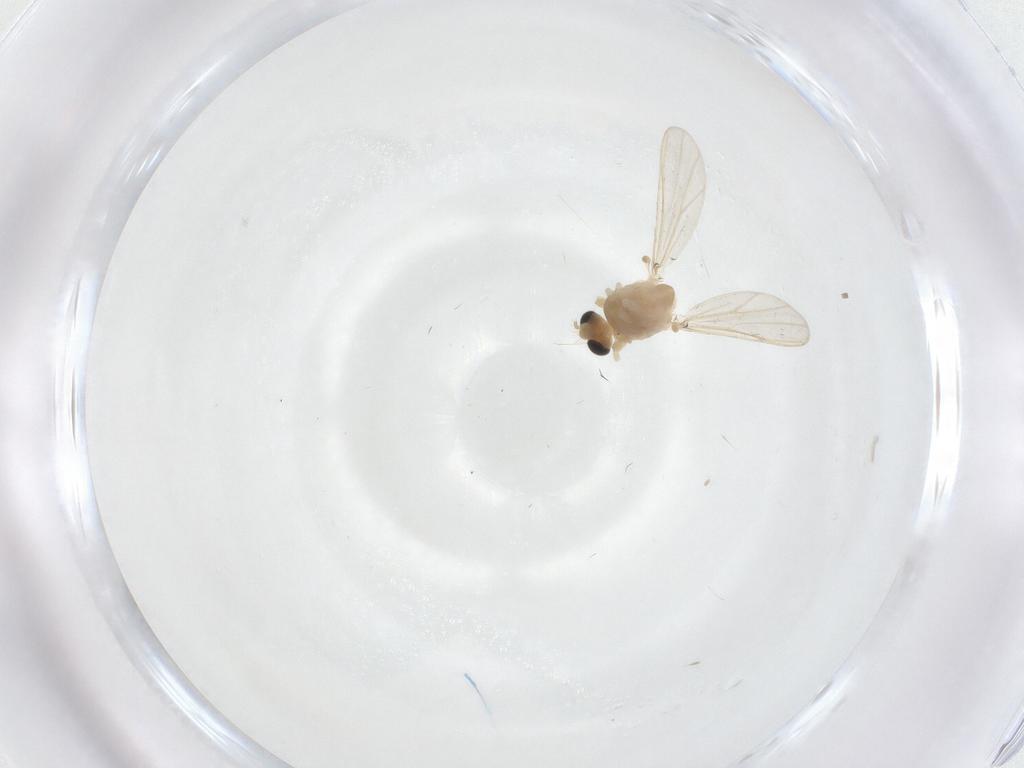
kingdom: Animalia
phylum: Arthropoda
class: Insecta
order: Diptera
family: Chironomidae
